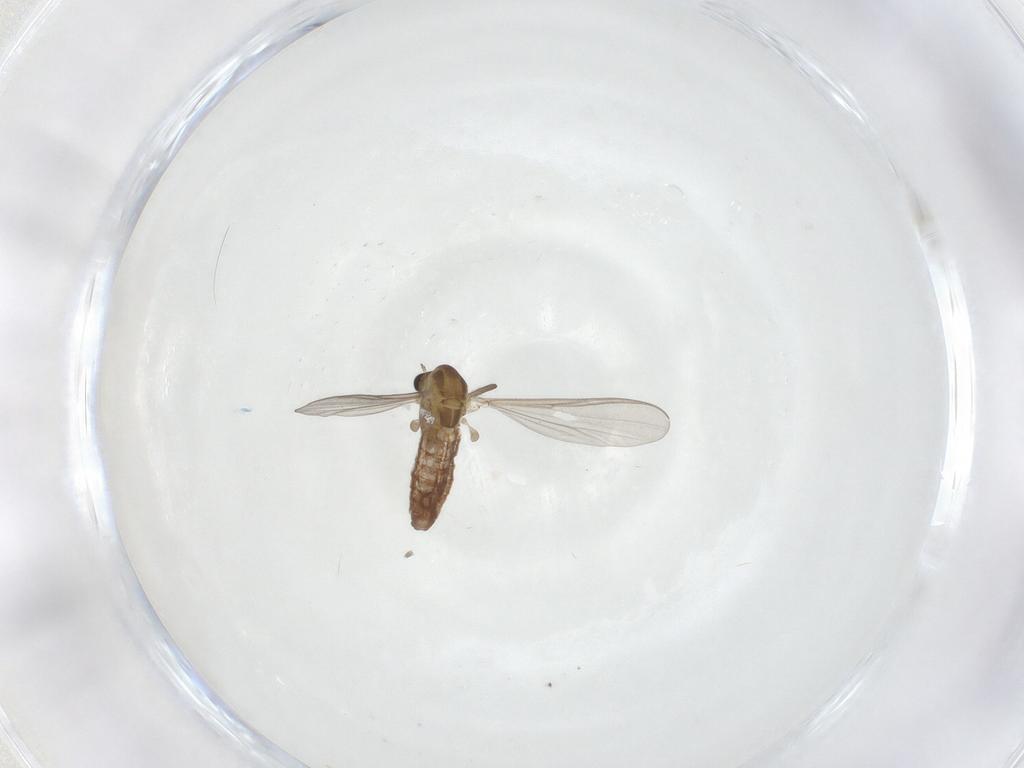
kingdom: Animalia
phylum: Arthropoda
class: Insecta
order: Diptera
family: Chironomidae
